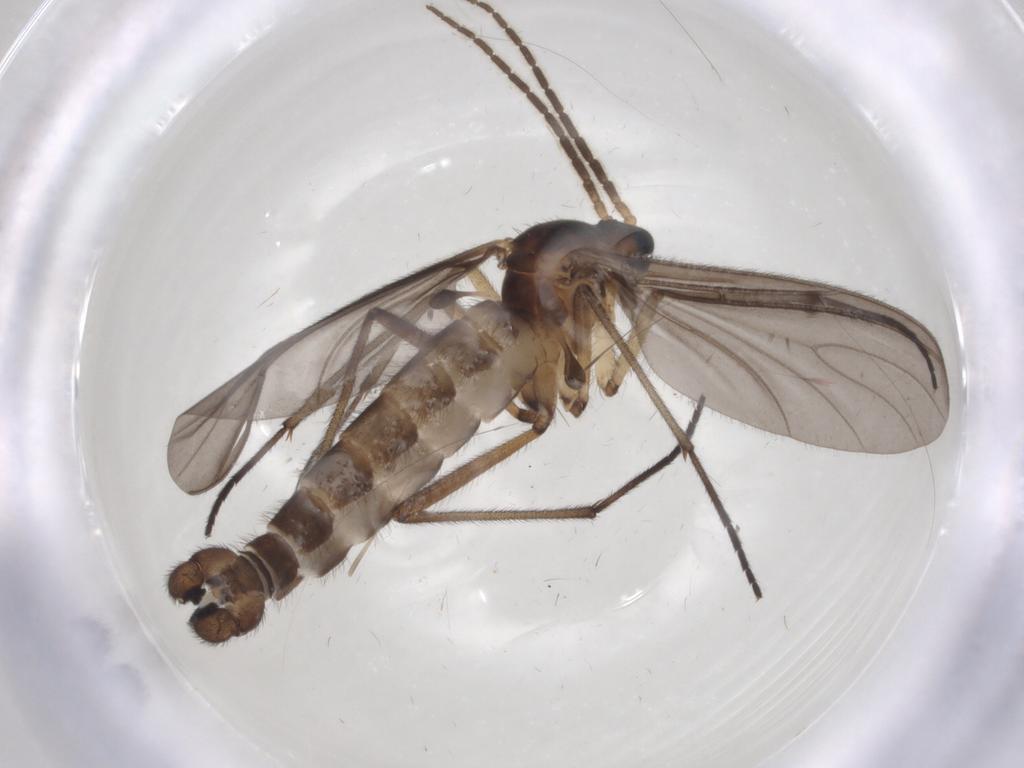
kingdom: Animalia
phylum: Arthropoda
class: Insecta
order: Diptera
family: Sciaridae
